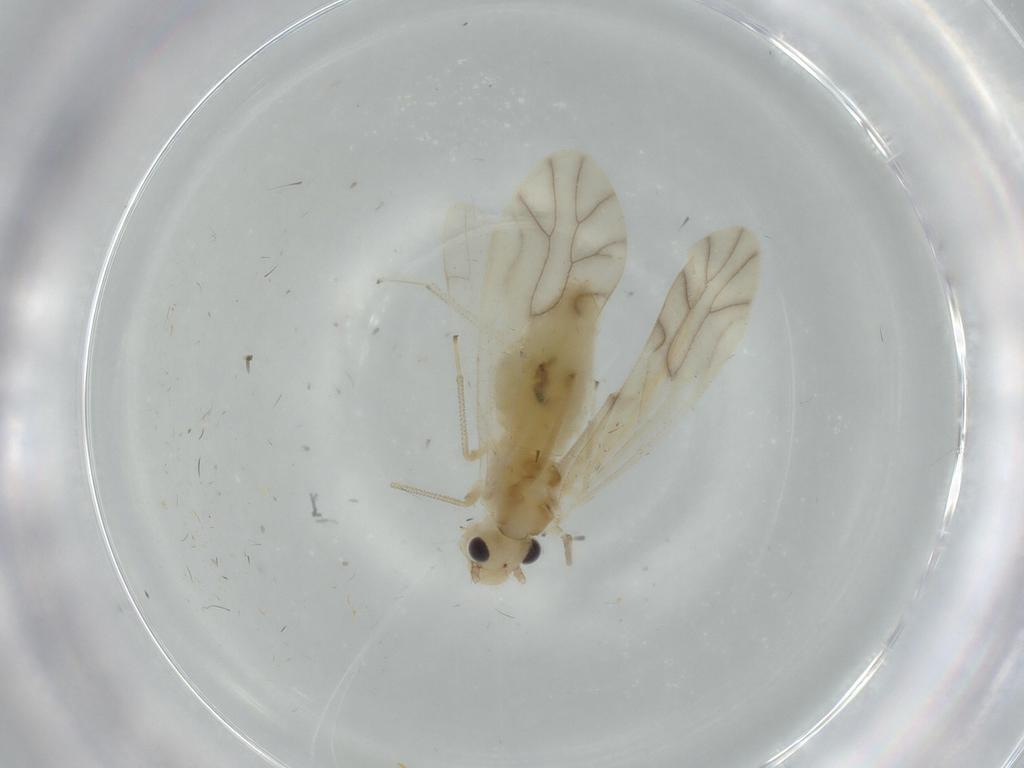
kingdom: Animalia
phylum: Arthropoda
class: Insecta
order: Psocodea
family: Caeciliusidae
